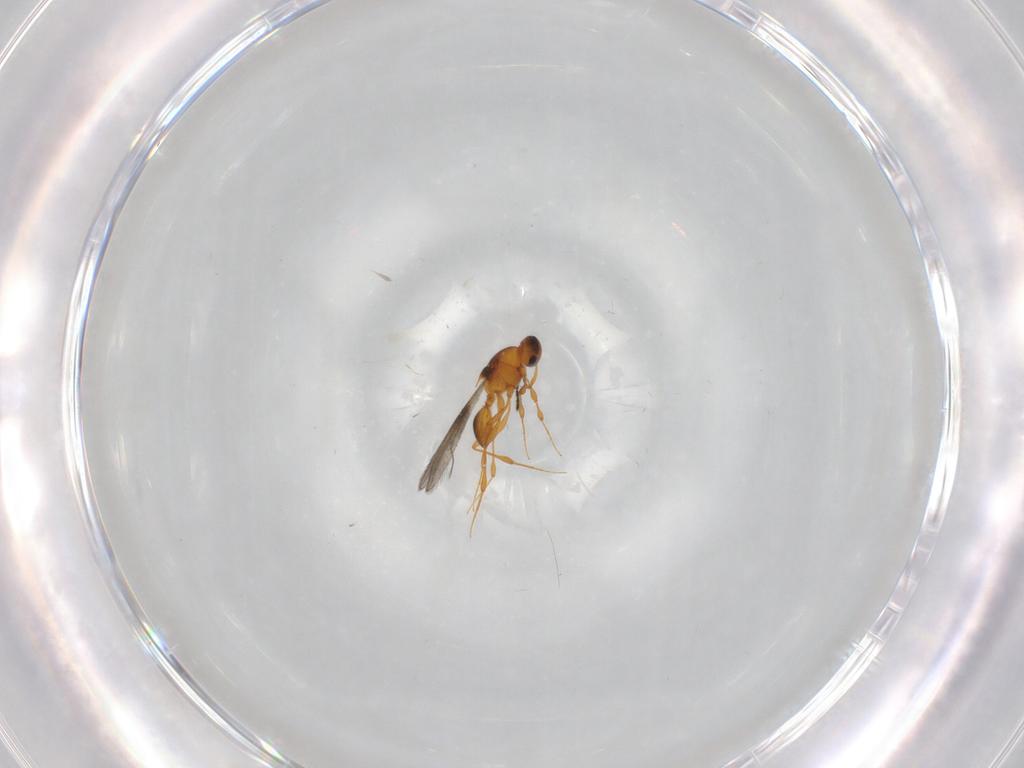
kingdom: Animalia
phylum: Arthropoda
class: Insecta
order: Hymenoptera
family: Platygastridae
